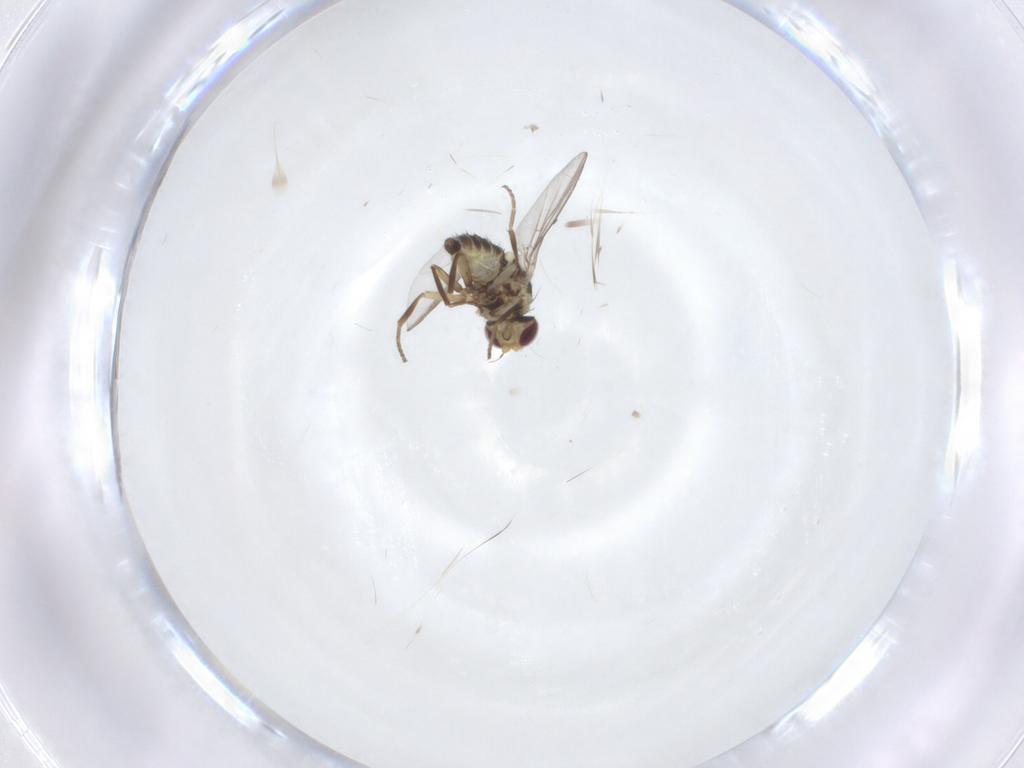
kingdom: Animalia
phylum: Arthropoda
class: Insecta
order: Diptera
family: Agromyzidae
